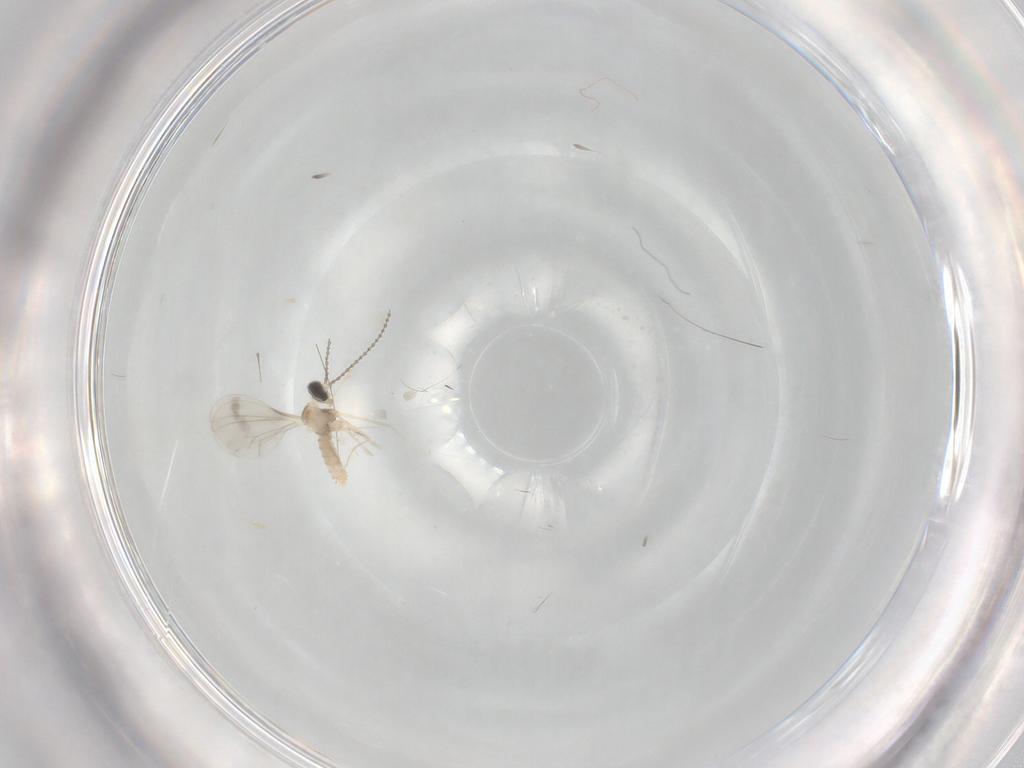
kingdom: Animalia
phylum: Arthropoda
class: Insecta
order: Diptera
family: Cecidomyiidae
